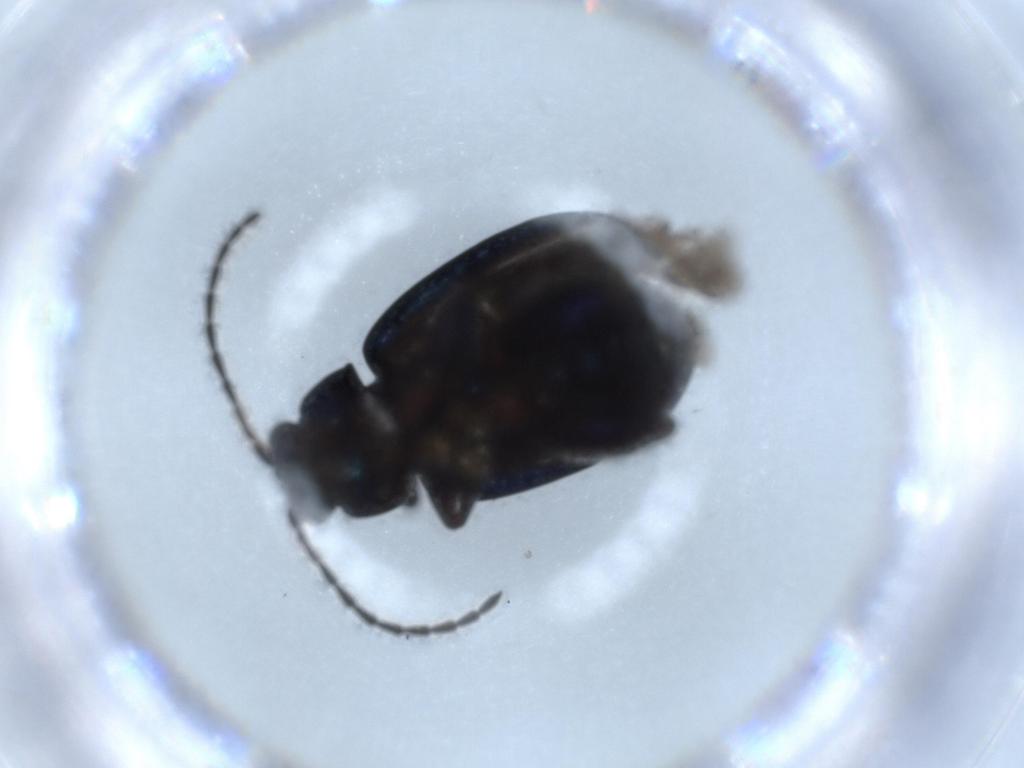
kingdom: Animalia
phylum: Arthropoda
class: Insecta
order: Coleoptera
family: Chrysomelidae
